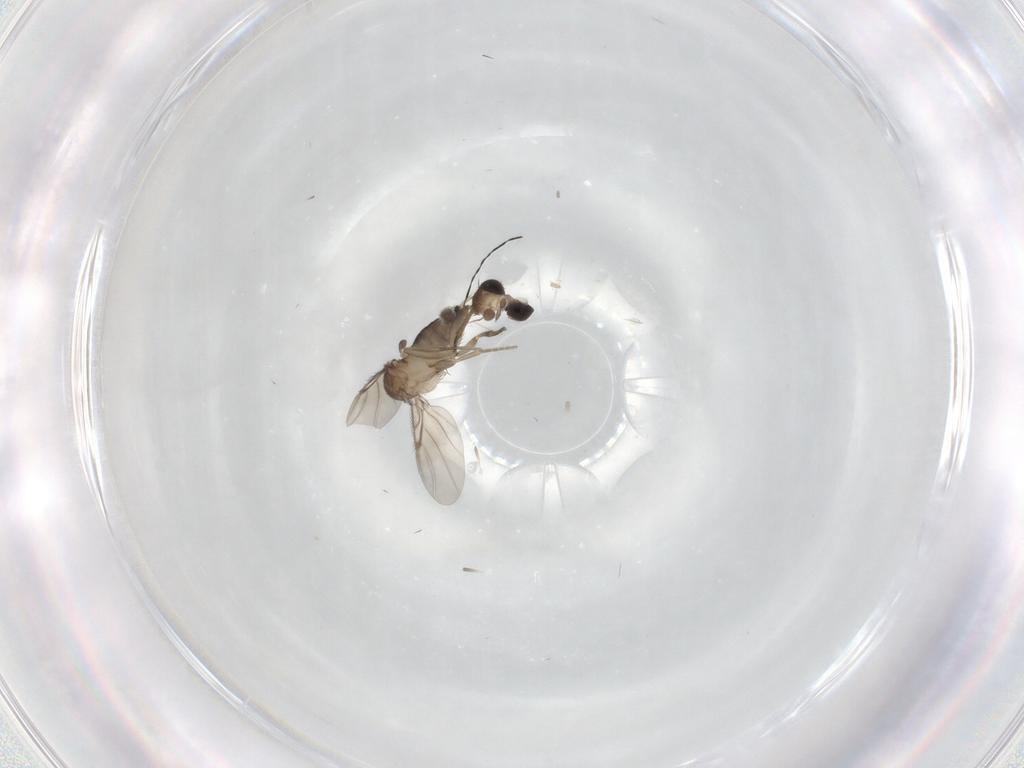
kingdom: Animalia
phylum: Arthropoda
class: Insecta
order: Diptera
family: Phoridae
